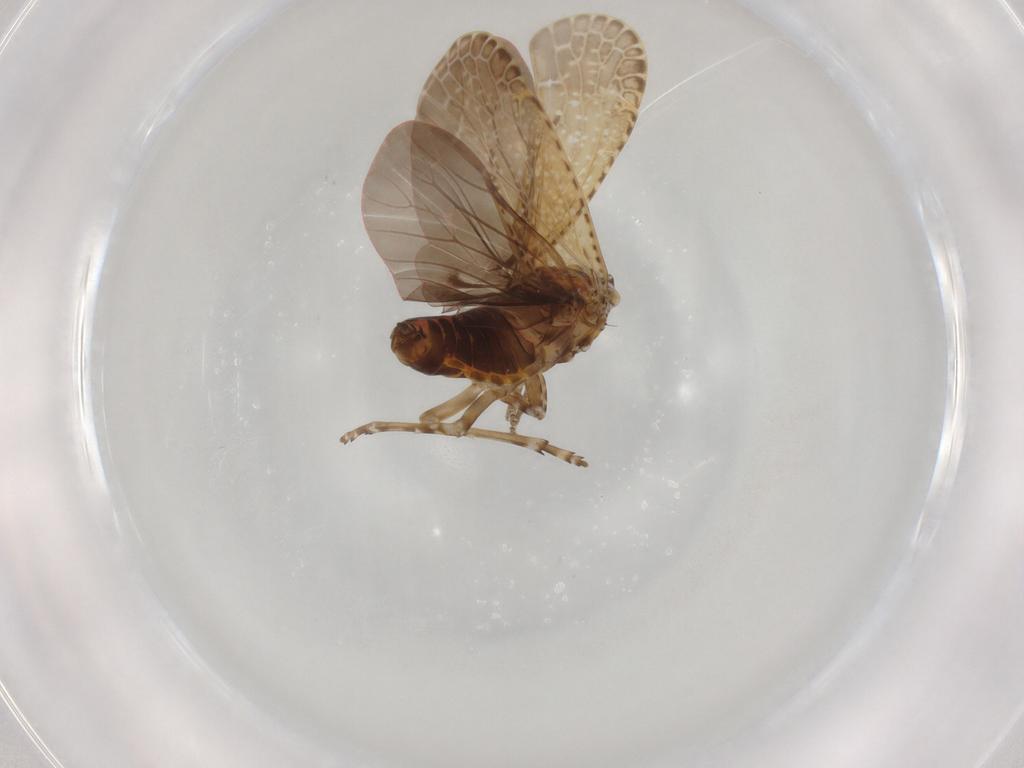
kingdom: Animalia
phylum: Arthropoda
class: Insecta
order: Hemiptera
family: Achilidae
